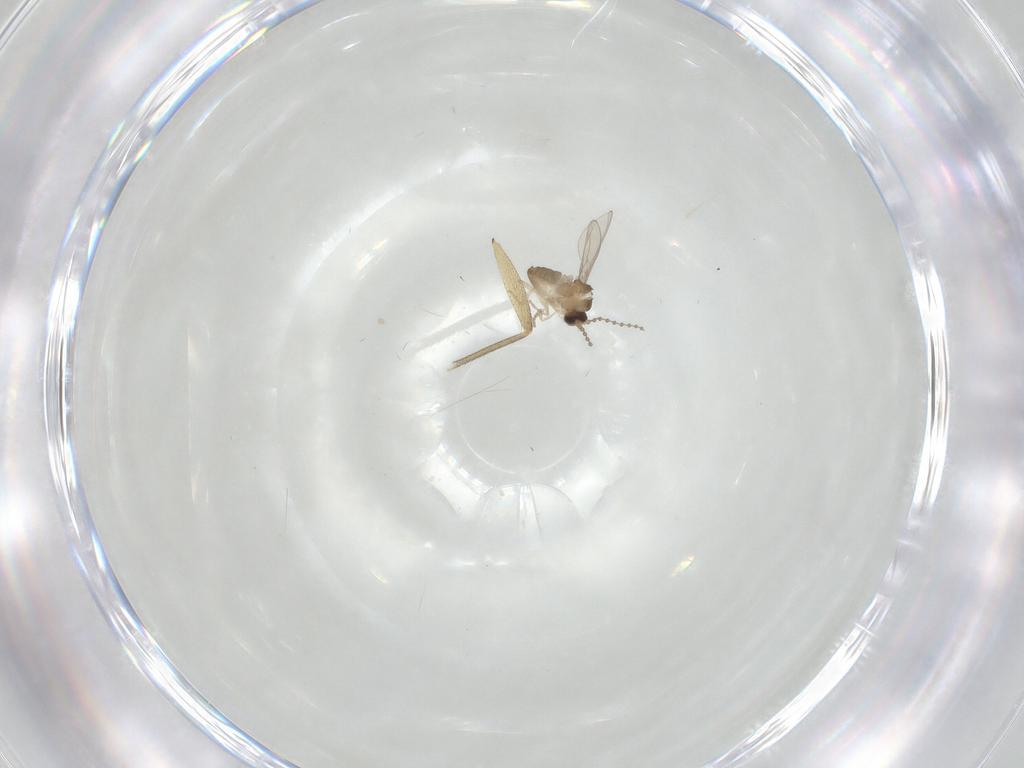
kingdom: Animalia
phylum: Arthropoda
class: Insecta
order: Diptera
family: Cecidomyiidae
